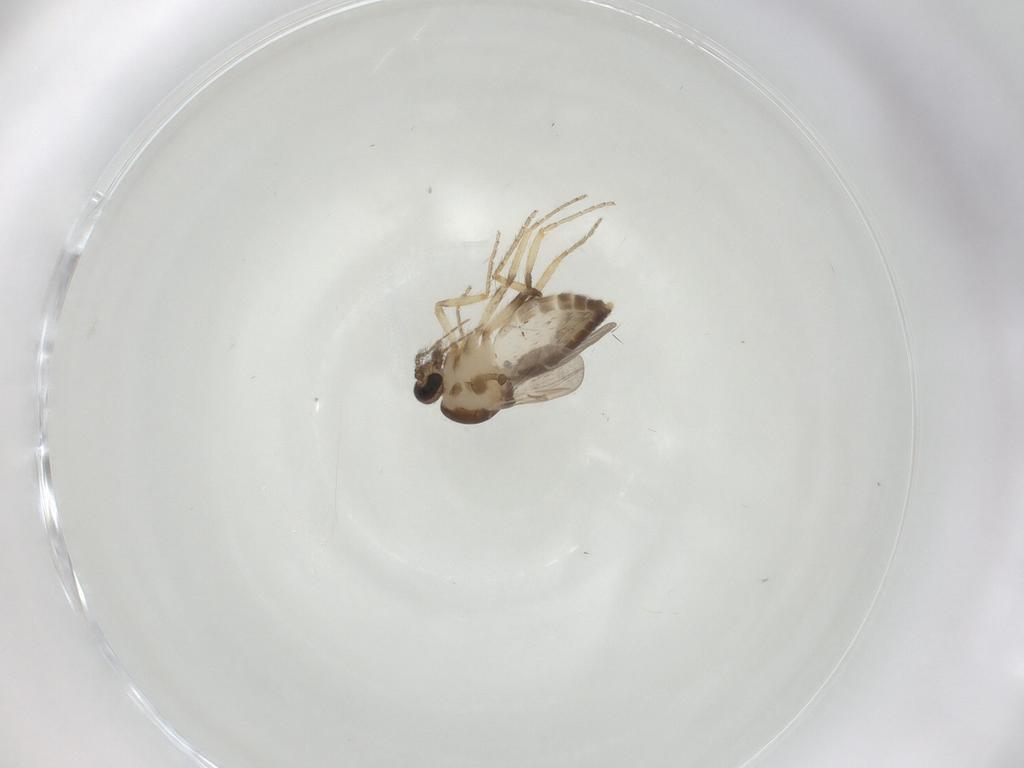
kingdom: Animalia
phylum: Arthropoda
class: Insecta
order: Diptera
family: Ceratopogonidae
